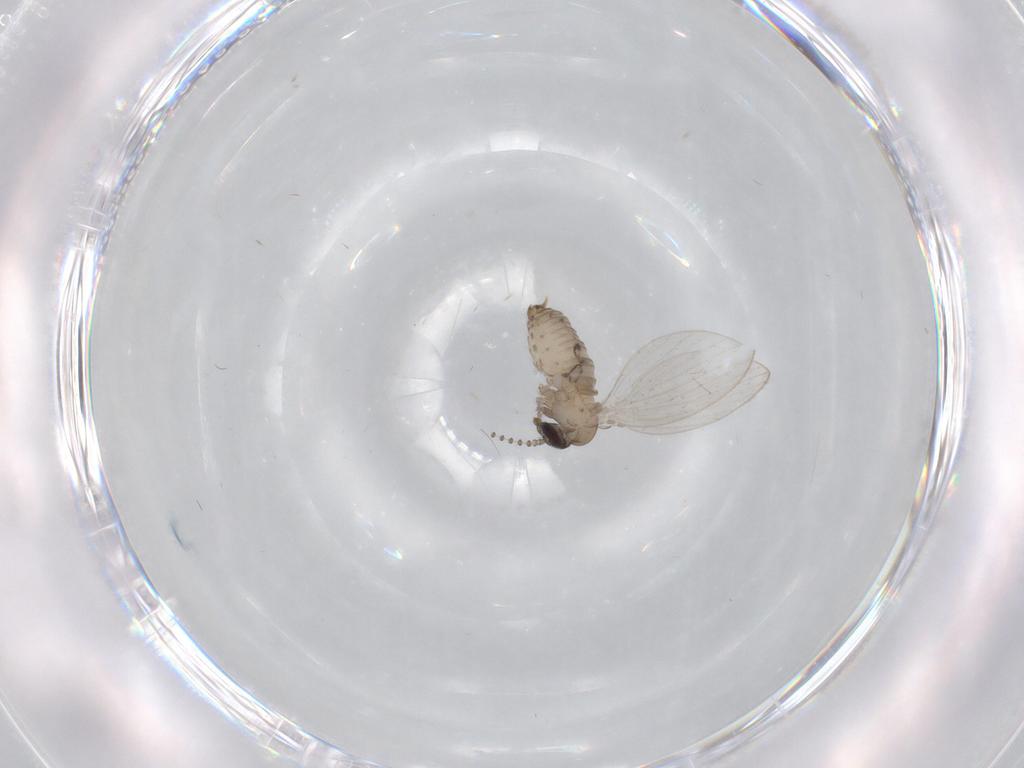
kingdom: Animalia
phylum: Arthropoda
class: Insecta
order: Diptera
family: Psychodidae
